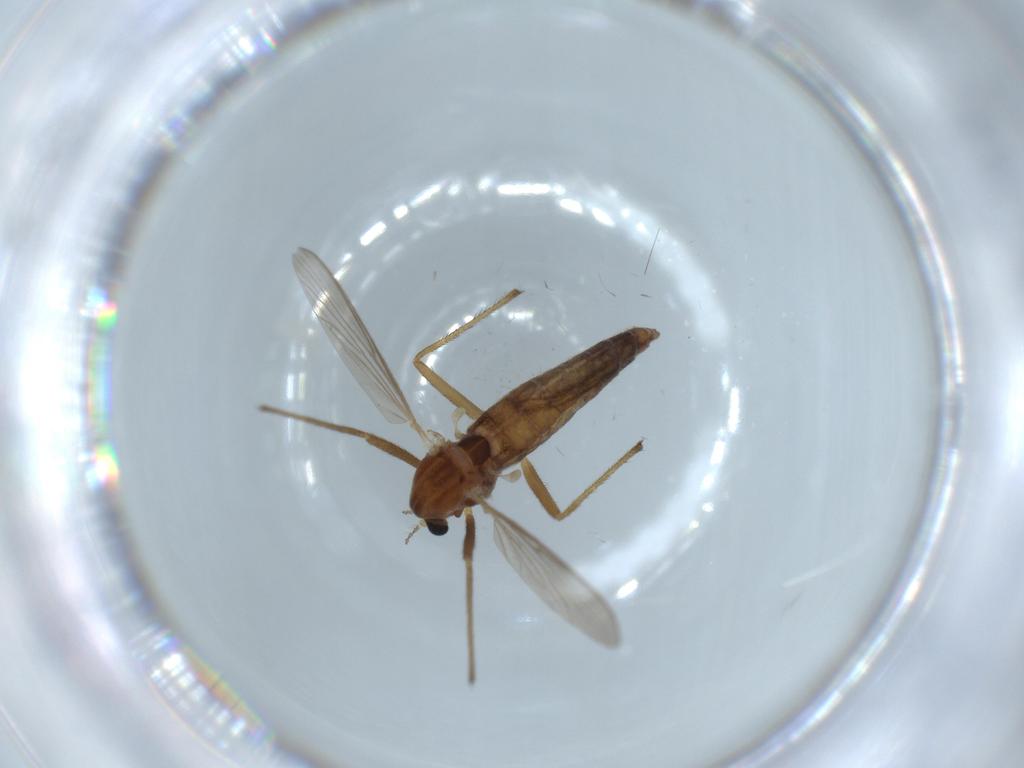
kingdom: Animalia
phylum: Arthropoda
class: Insecta
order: Diptera
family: Chironomidae
